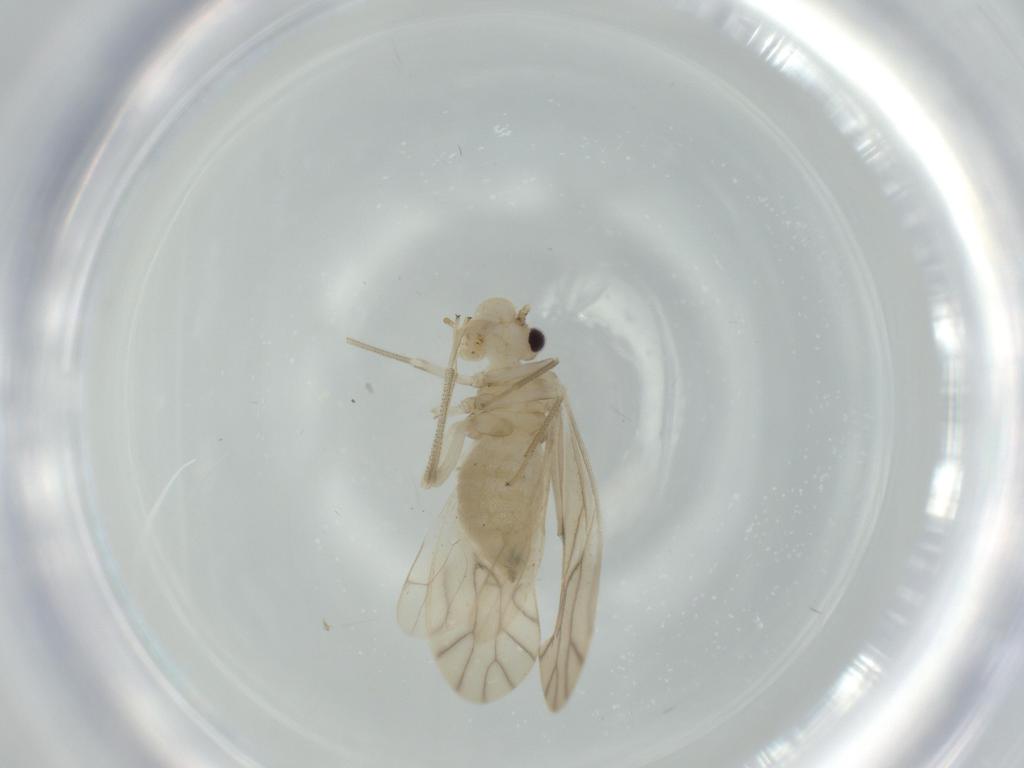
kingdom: Animalia
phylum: Arthropoda
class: Insecta
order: Psocodea
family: Caeciliusidae
